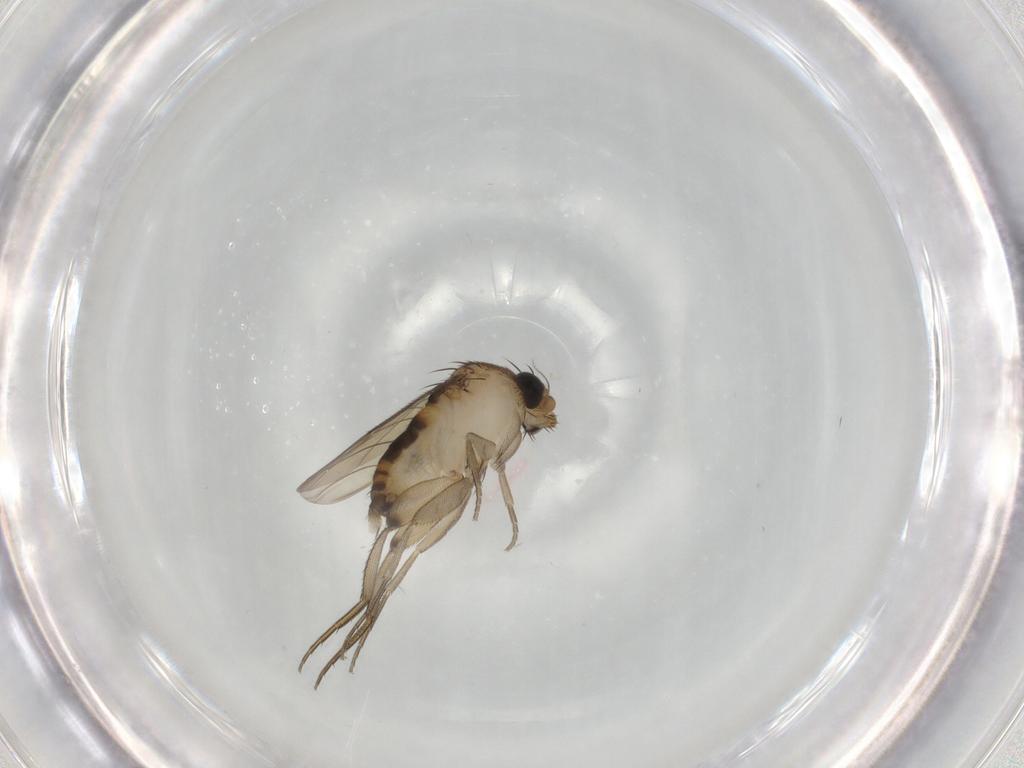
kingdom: Animalia
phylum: Arthropoda
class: Insecta
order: Diptera
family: Phoridae
